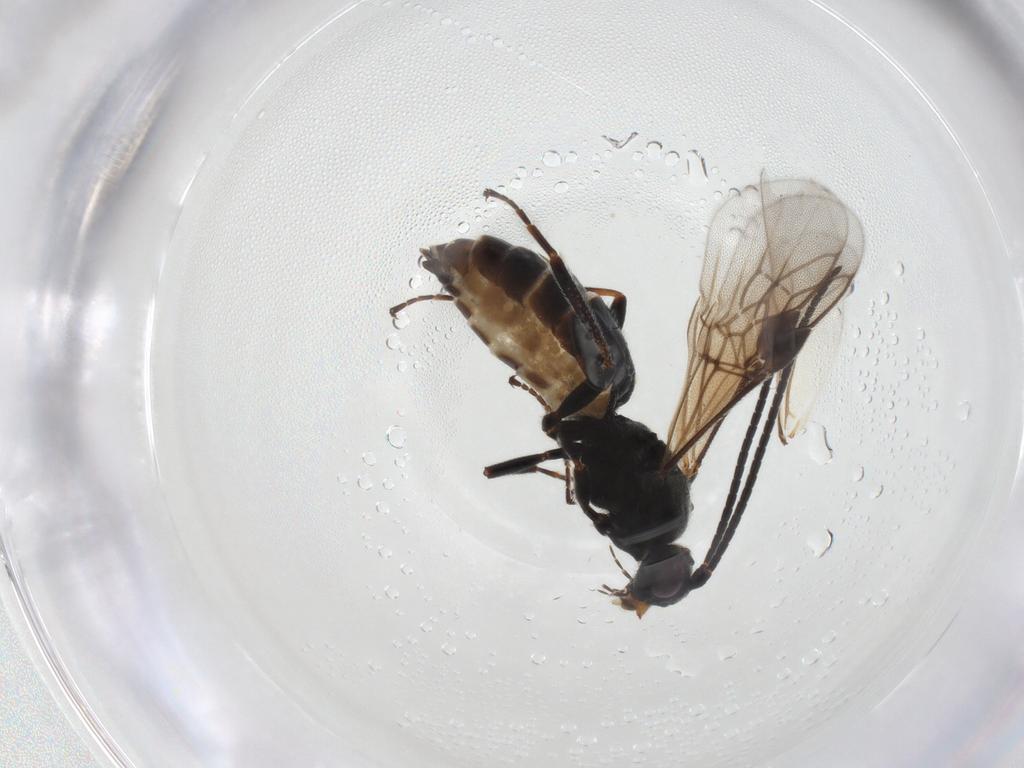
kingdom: Animalia
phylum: Arthropoda
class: Insecta
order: Hymenoptera
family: Braconidae
